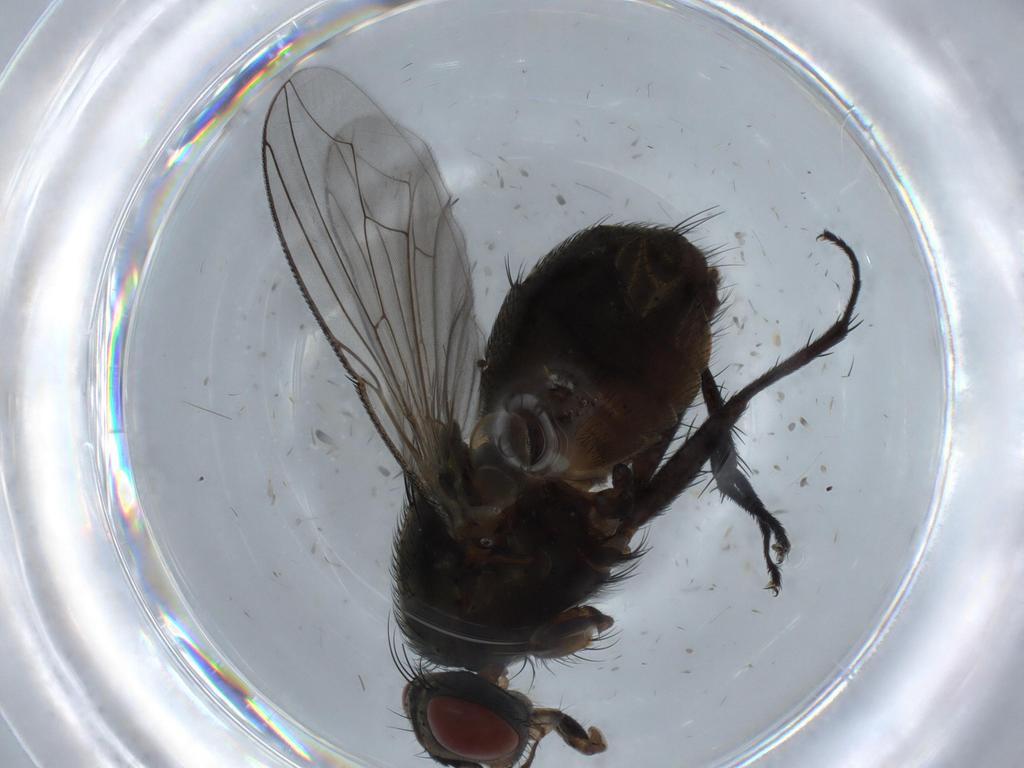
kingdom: Animalia
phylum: Arthropoda
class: Insecta
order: Diptera
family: Sarcophagidae
